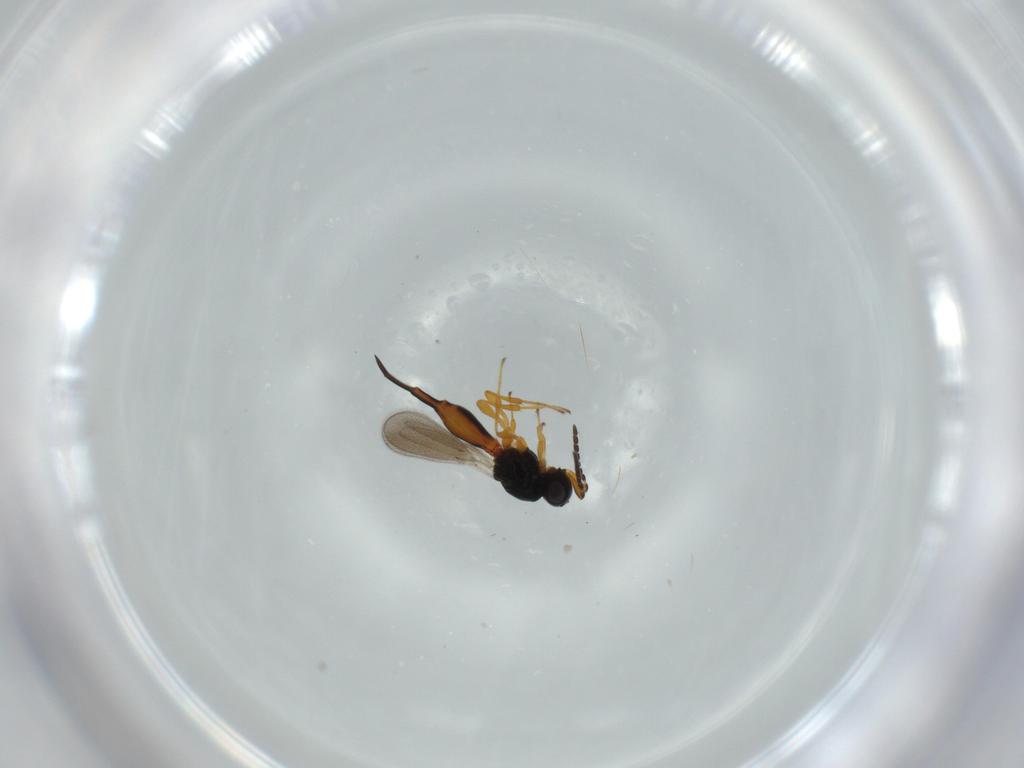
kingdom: Animalia
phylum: Arthropoda
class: Insecta
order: Hymenoptera
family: Platygastridae
